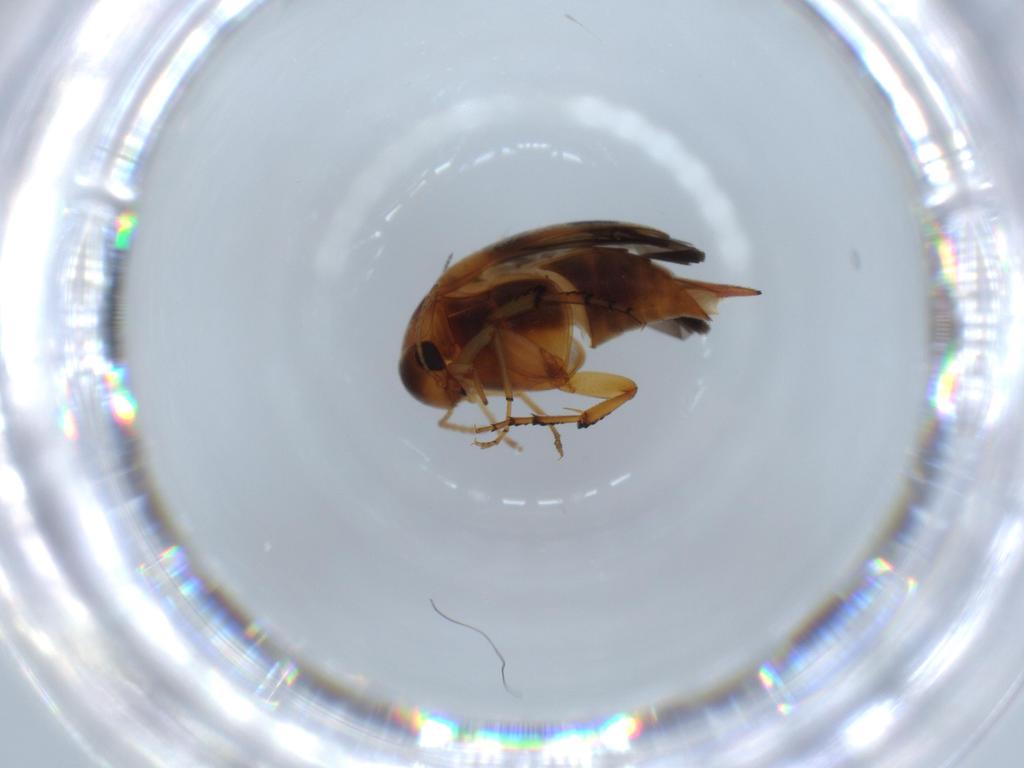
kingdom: Animalia
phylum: Arthropoda
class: Insecta
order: Coleoptera
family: Mordellidae
